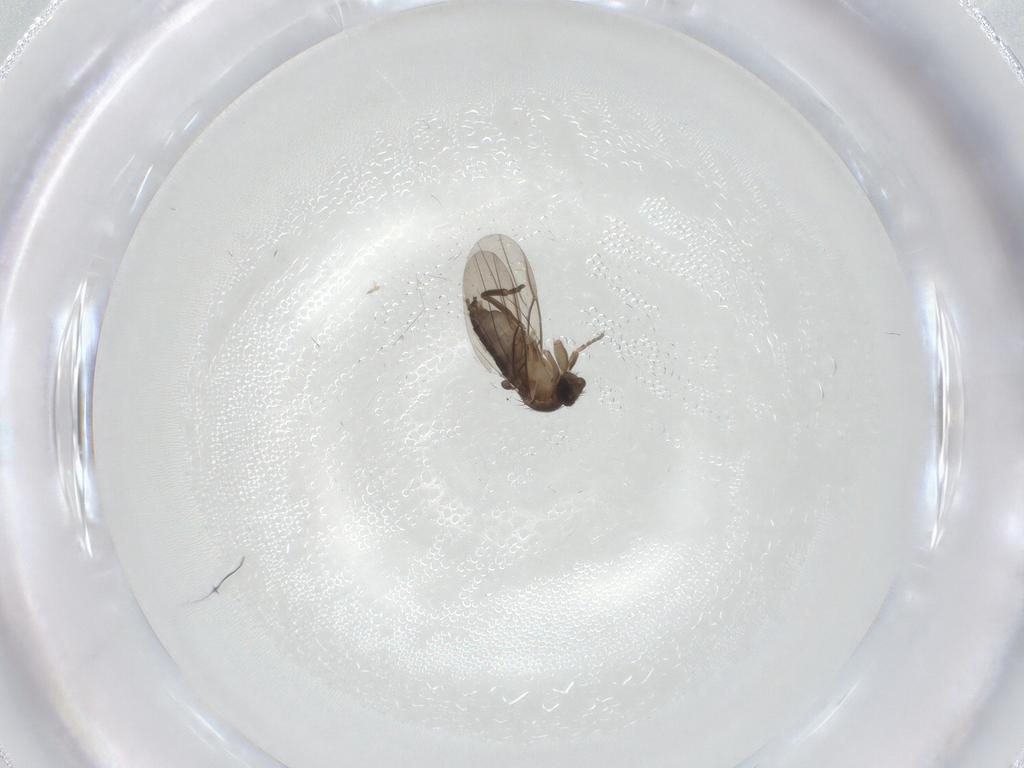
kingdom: Animalia
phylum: Arthropoda
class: Insecta
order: Diptera
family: Phoridae
